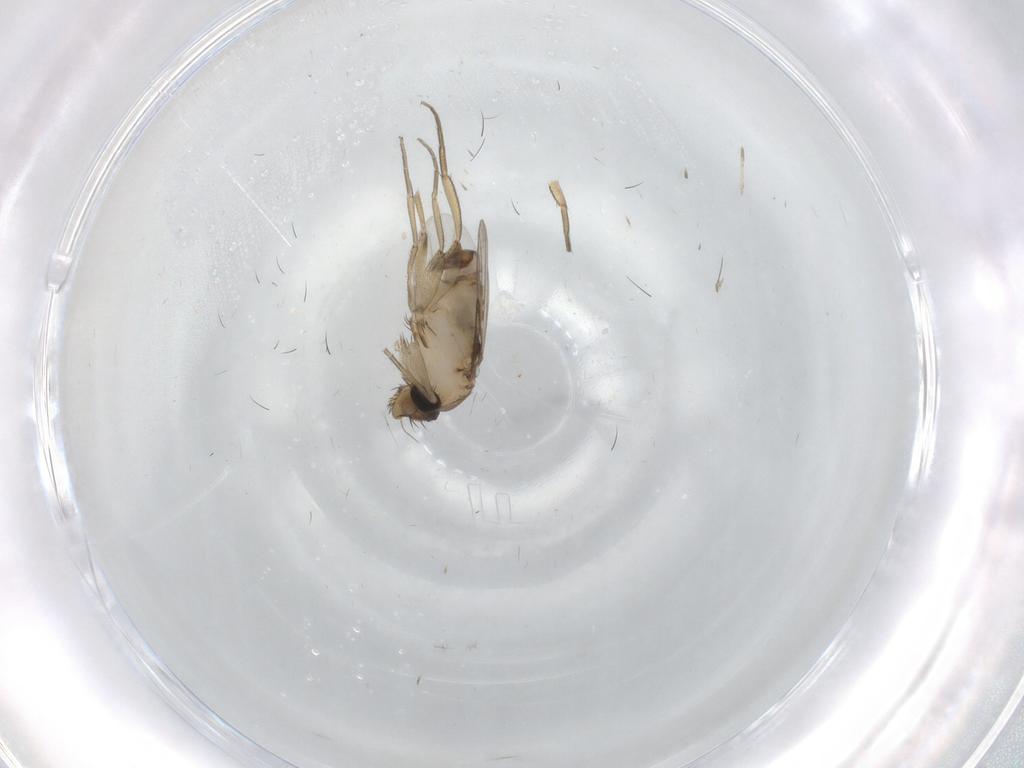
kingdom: Animalia
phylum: Arthropoda
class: Insecta
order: Diptera
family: Phoridae
